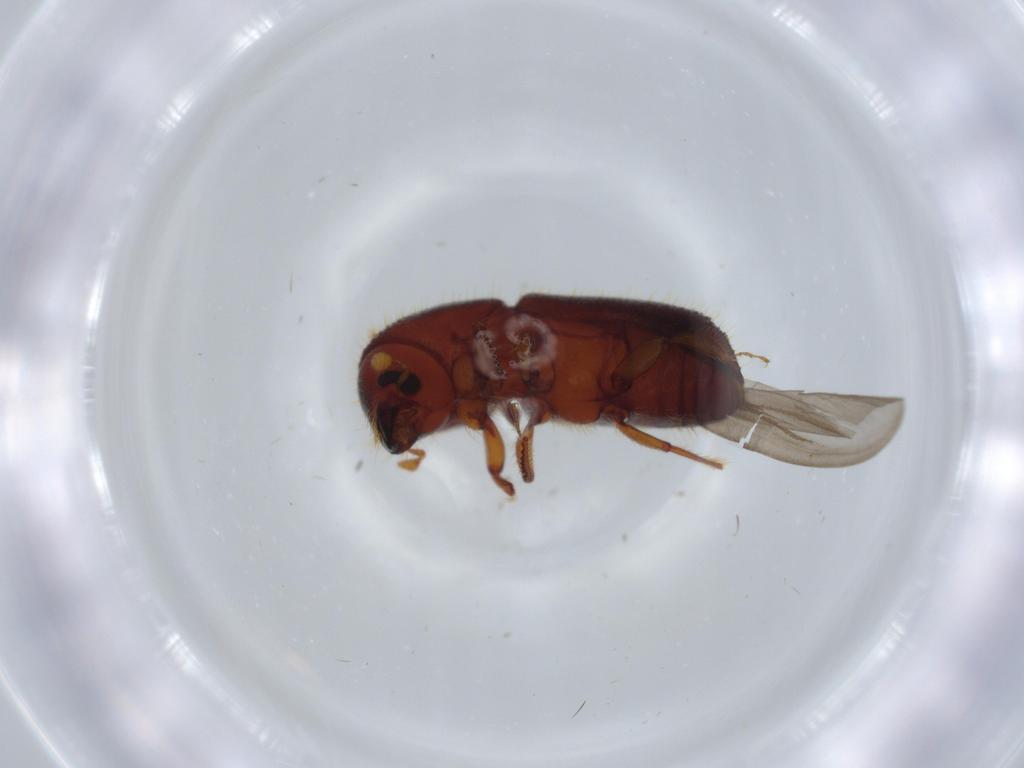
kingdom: Animalia
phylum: Arthropoda
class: Insecta
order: Coleoptera
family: Curculionidae
